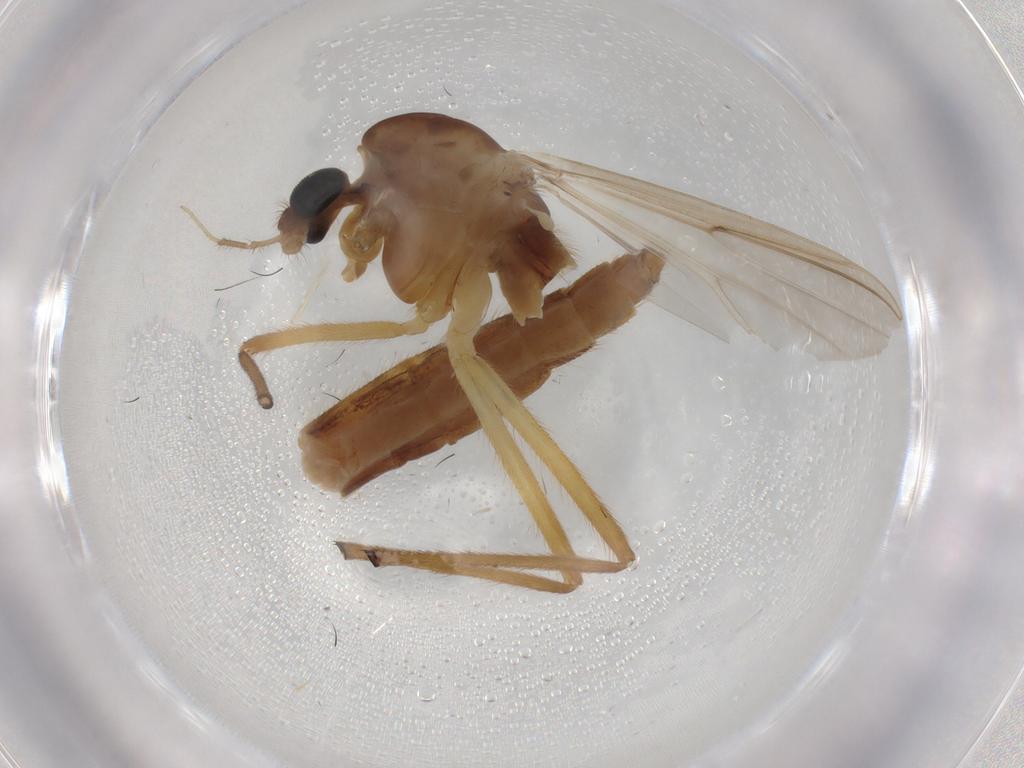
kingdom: Animalia
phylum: Arthropoda
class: Insecta
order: Diptera
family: Chironomidae
